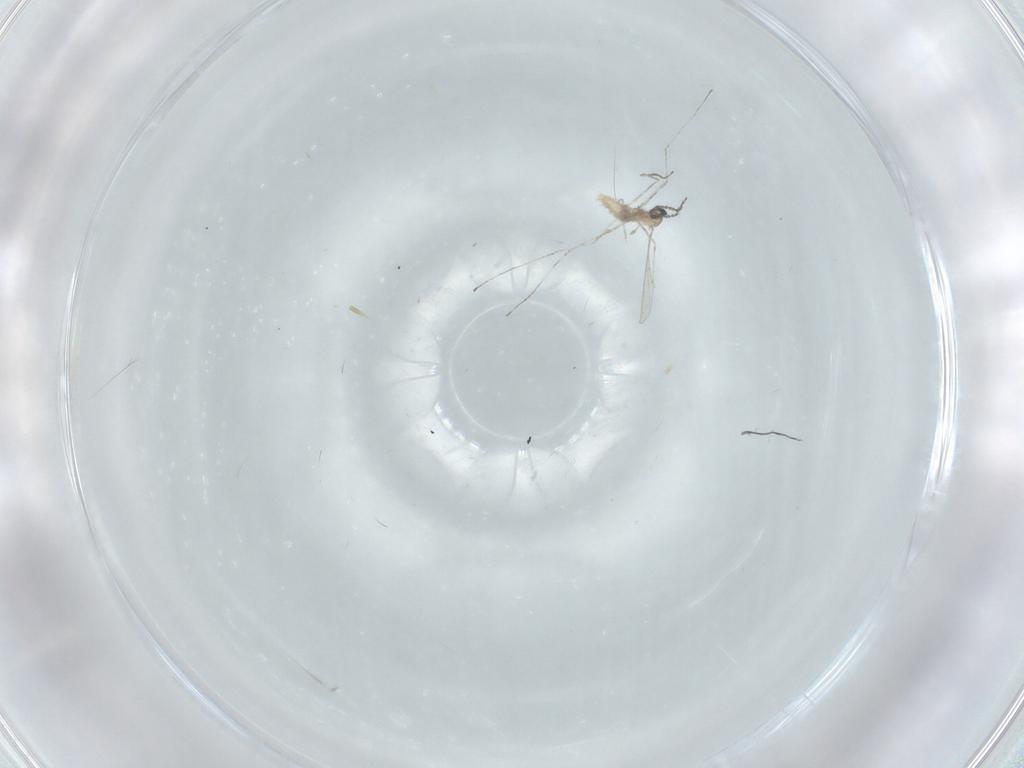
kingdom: Animalia
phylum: Arthropoda
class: Insecta
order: Diptera
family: Cecidomyiidae
